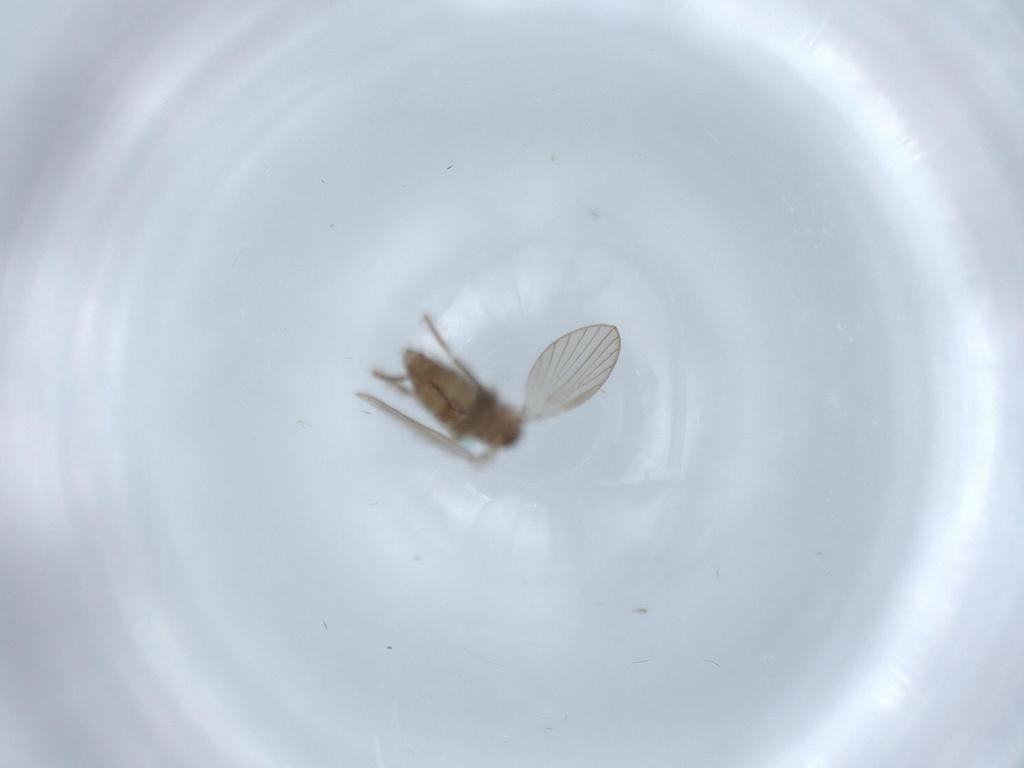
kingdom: Animalia
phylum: Arthropoda
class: Insecta
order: Diptera
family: Psychodidae
